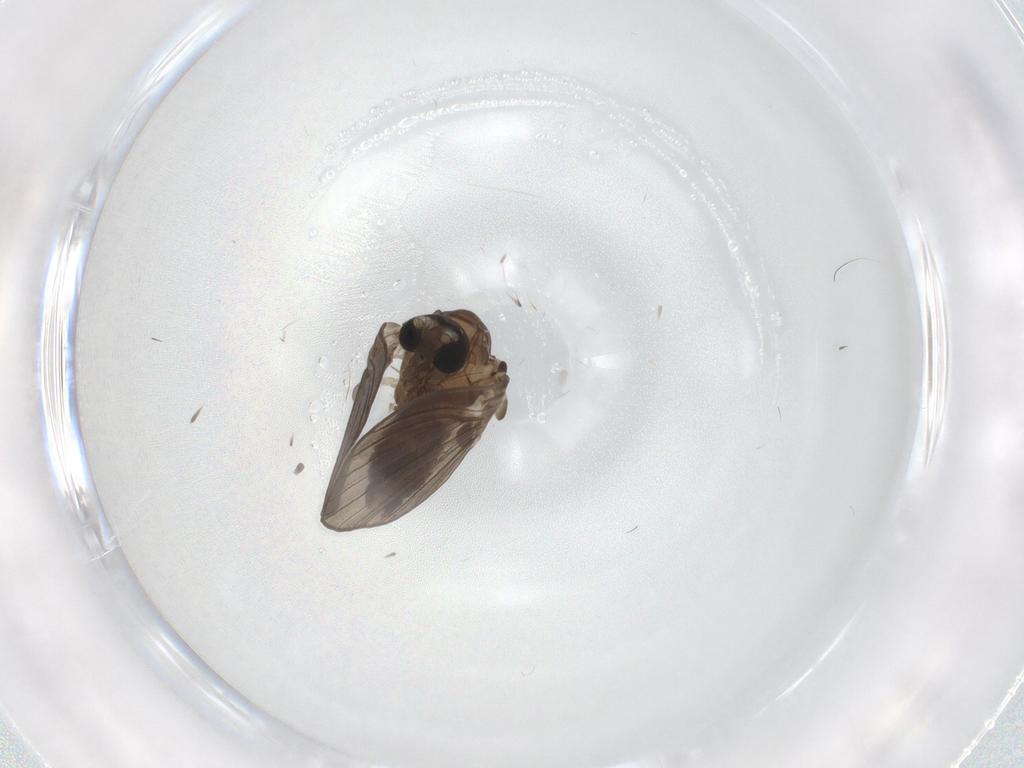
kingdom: Animalia
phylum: Arthropoda
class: Insecta
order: Diptera
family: Psychodidae
